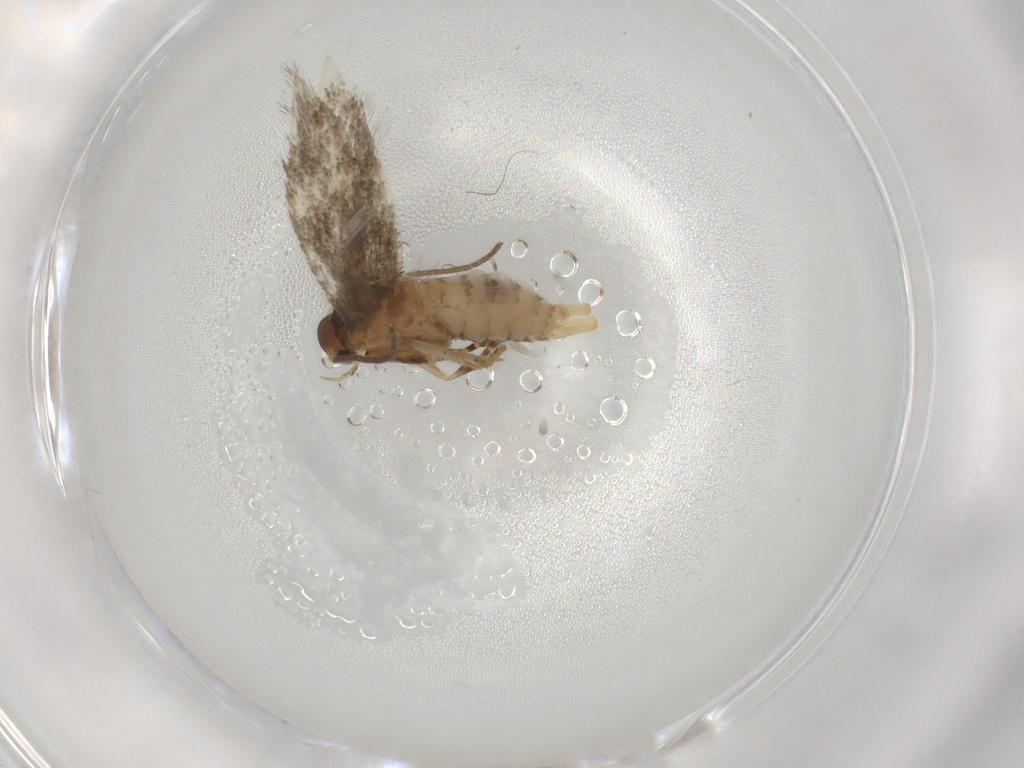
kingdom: Animalia
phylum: Arthropoda
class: Insecta
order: Lepidoptera
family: Elachistidae
